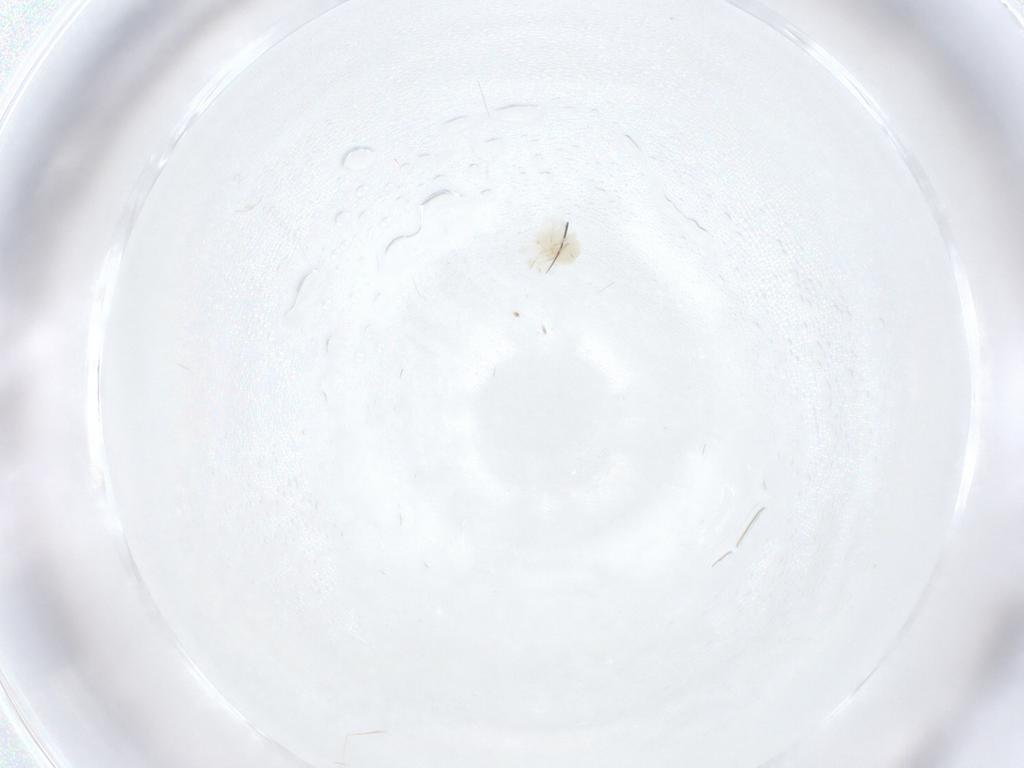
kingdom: Animalia
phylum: Arthropoda
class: Arachnida
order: Trombidiformes
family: Anystidae
